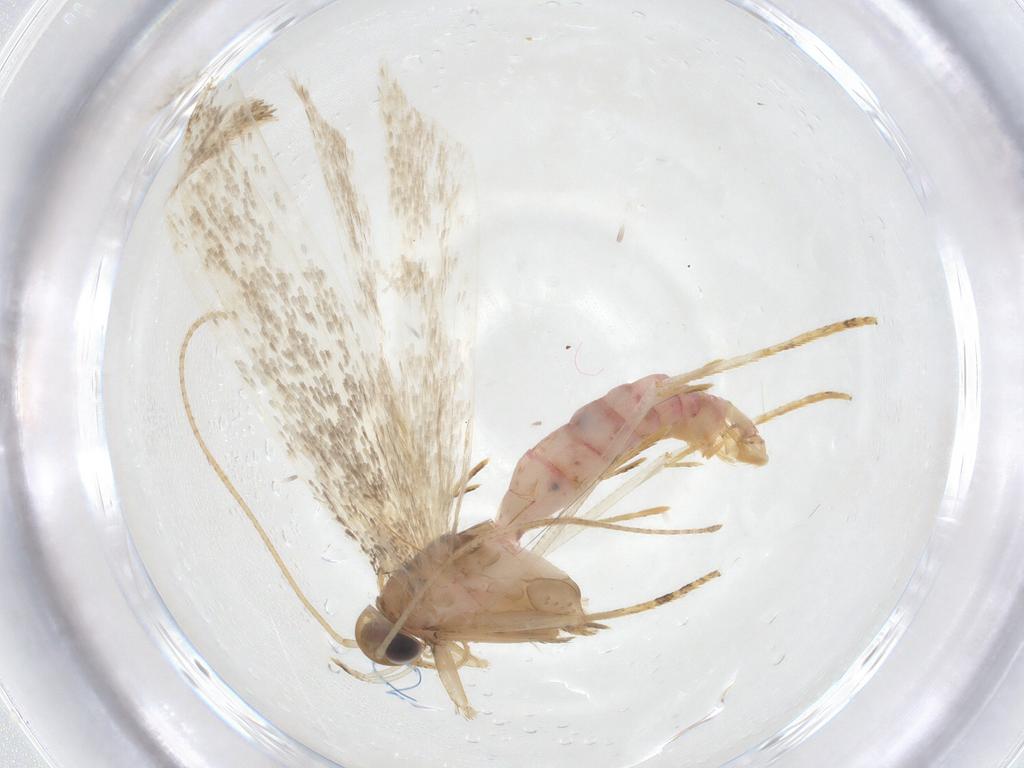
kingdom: Animalia
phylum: Arthropoda
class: Insecta
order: Lepidoptera
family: Crambidae
